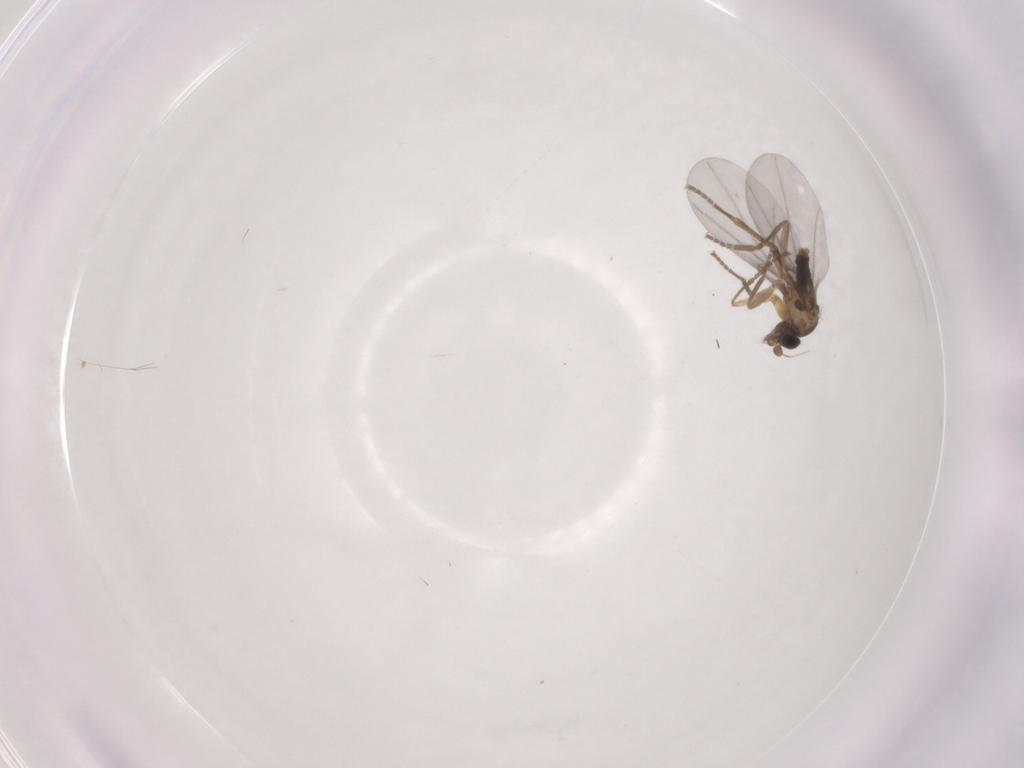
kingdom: Animalia
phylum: Arthropoda
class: Insecta
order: Diptera
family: Phoridae
